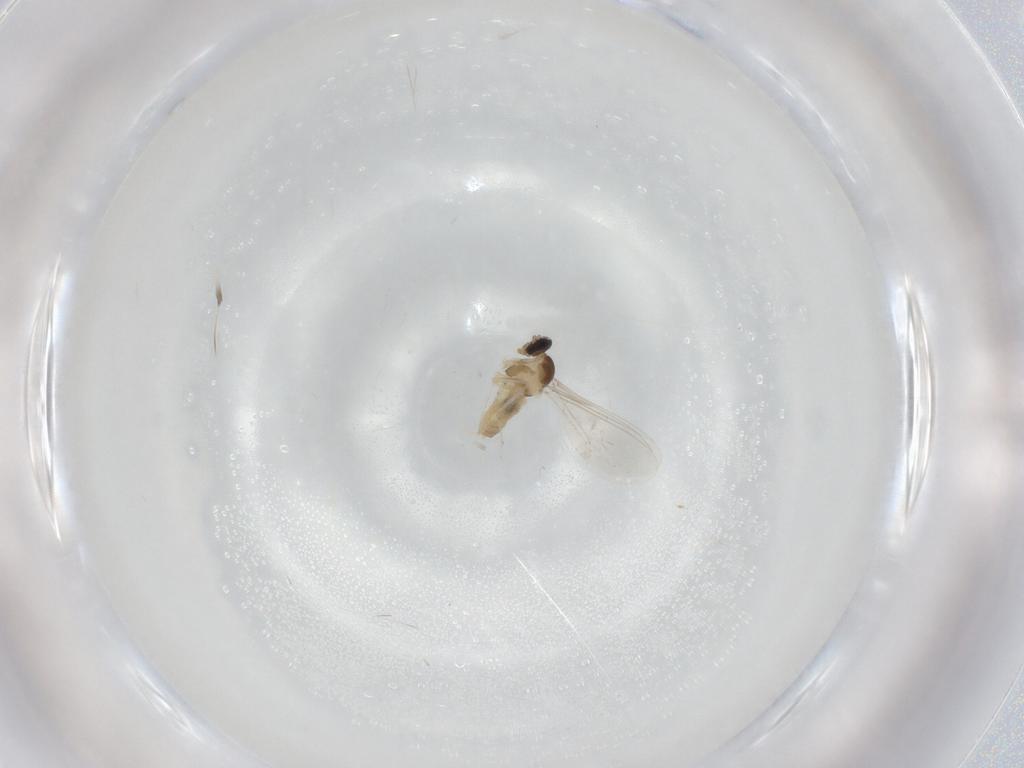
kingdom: Animalia
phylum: Arthropoda
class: Insecta
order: Diptera
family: Cecidomyiidae
